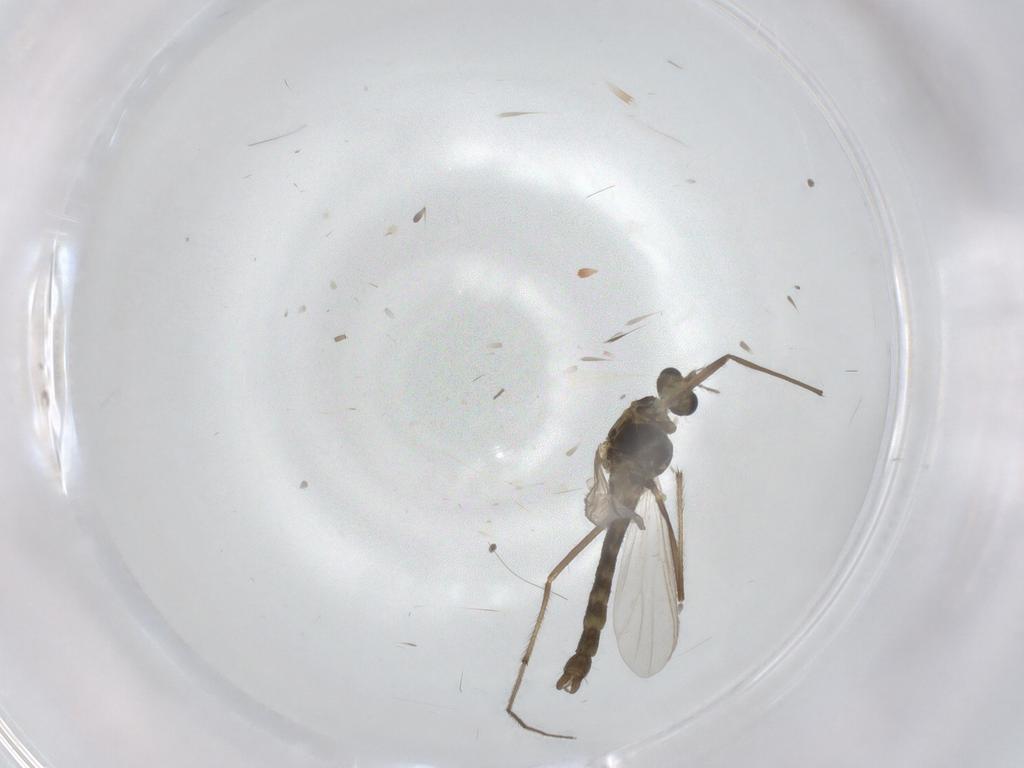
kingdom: Animalia
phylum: Arthropoda
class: Insecta
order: Diptera
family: Chironomidae
